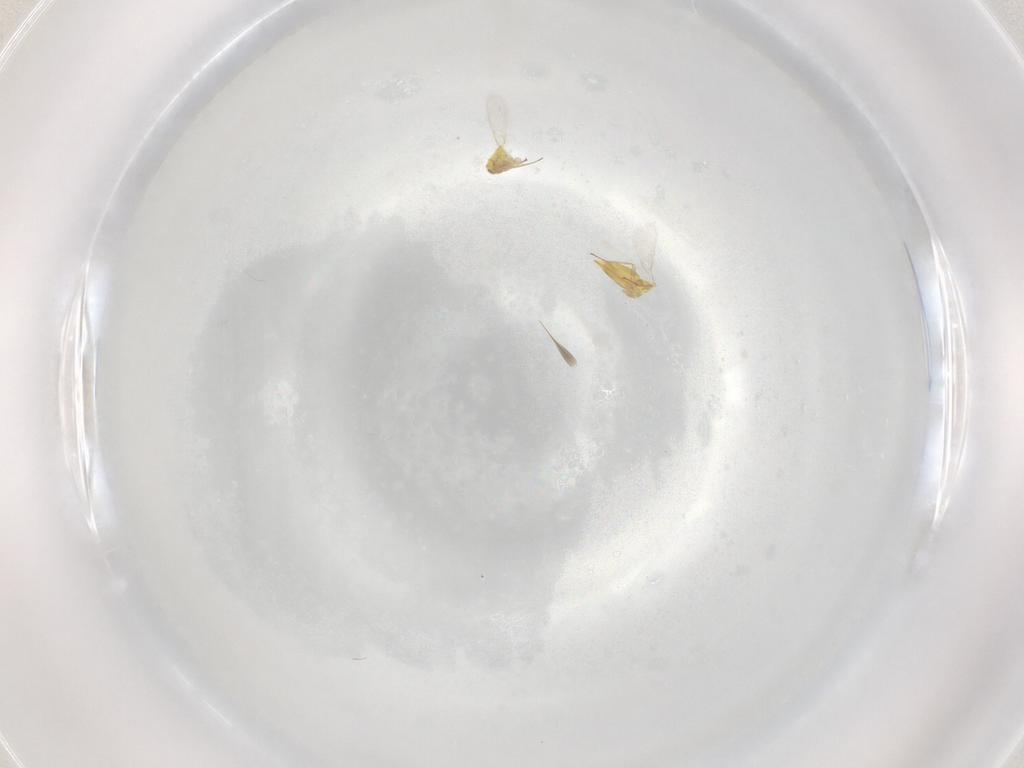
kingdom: Animalia
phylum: Arthropoda
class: Insecta
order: Hymenoptera
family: Aphelinidae
